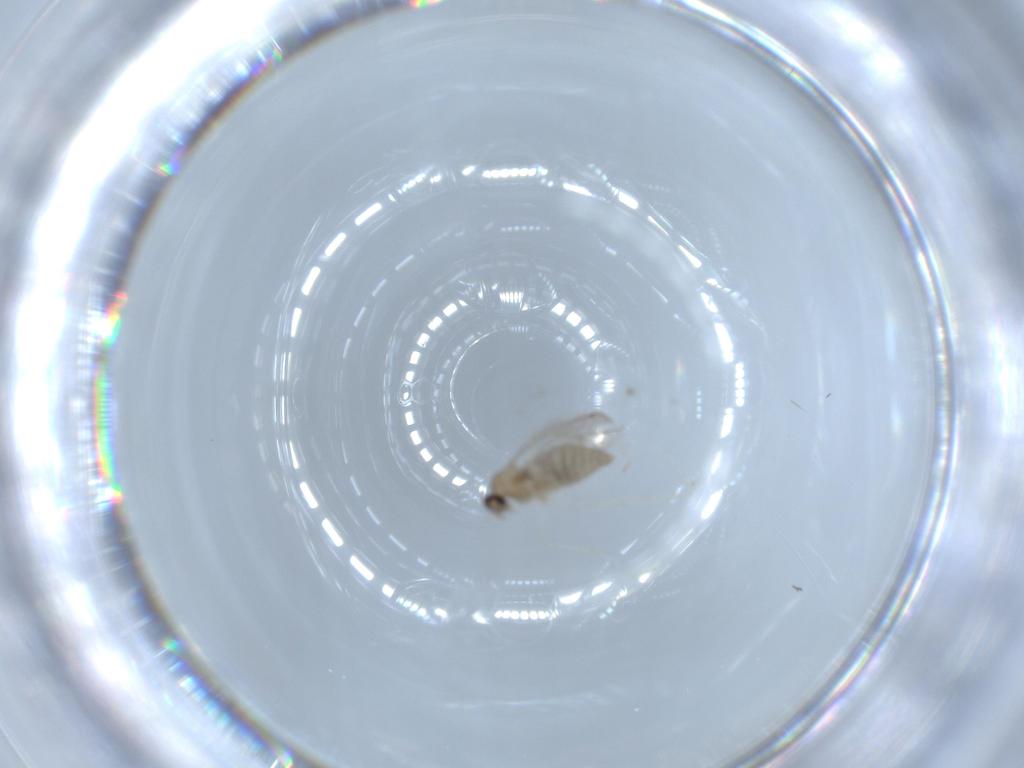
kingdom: Animalia
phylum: Arthropoda
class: Insecta
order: Diptera
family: Cecidomyiidae
